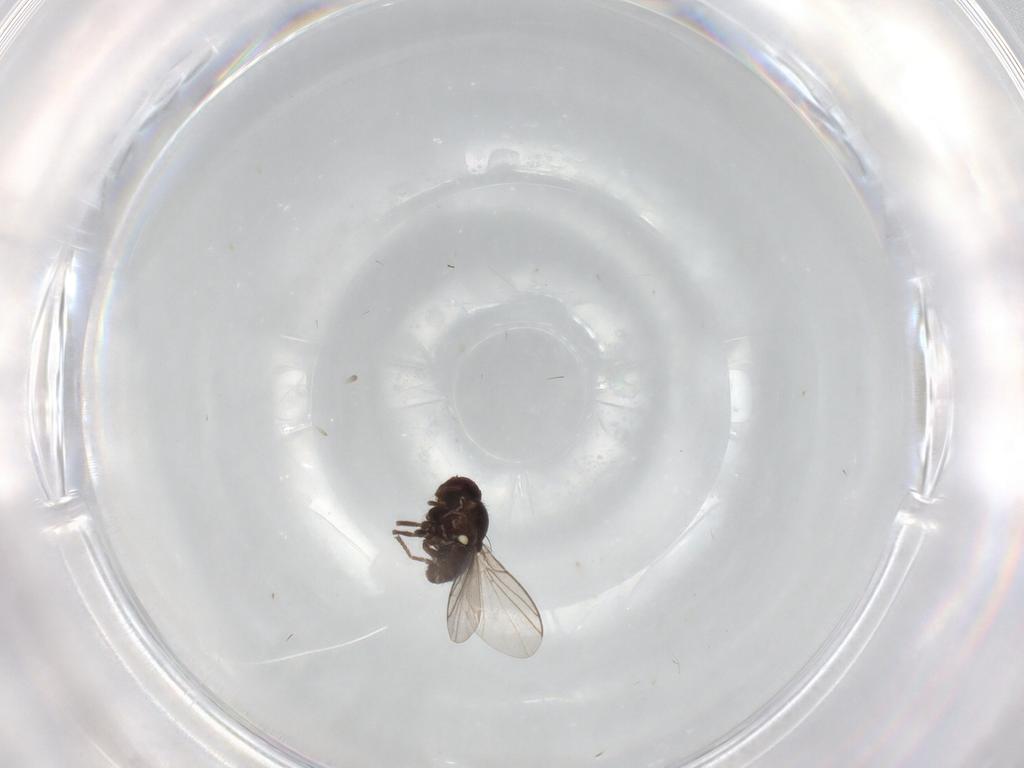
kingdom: Animalia
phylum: Arthropoda
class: Insecta
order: Diptera
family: Agromyzidae
